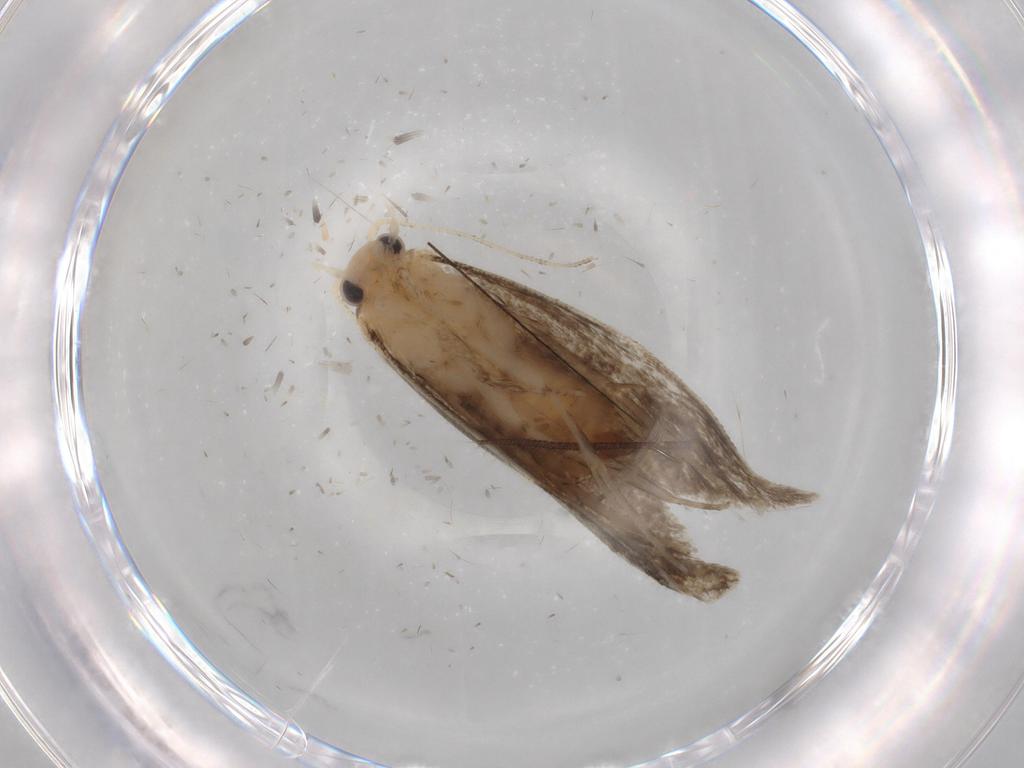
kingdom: Animalia
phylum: Arthropoda
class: Insecta
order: Lepidoptera
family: Tineidae
